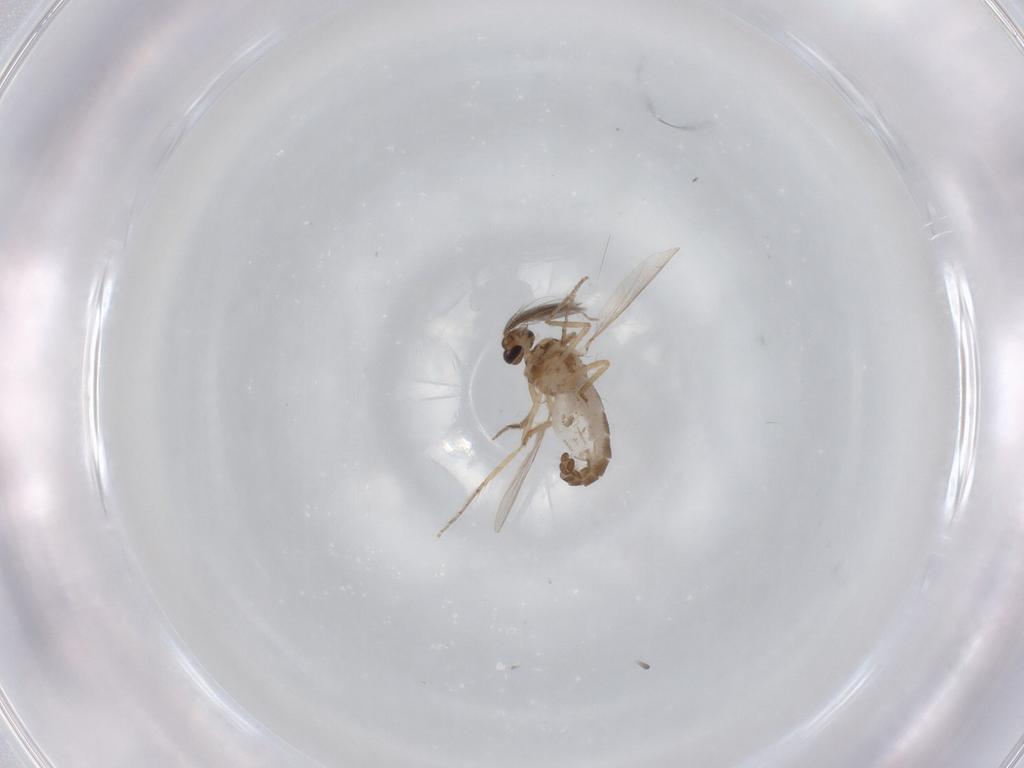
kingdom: Animalia
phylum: Arthropoda
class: Insecta
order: Diptera
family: Ceratopogonidae
